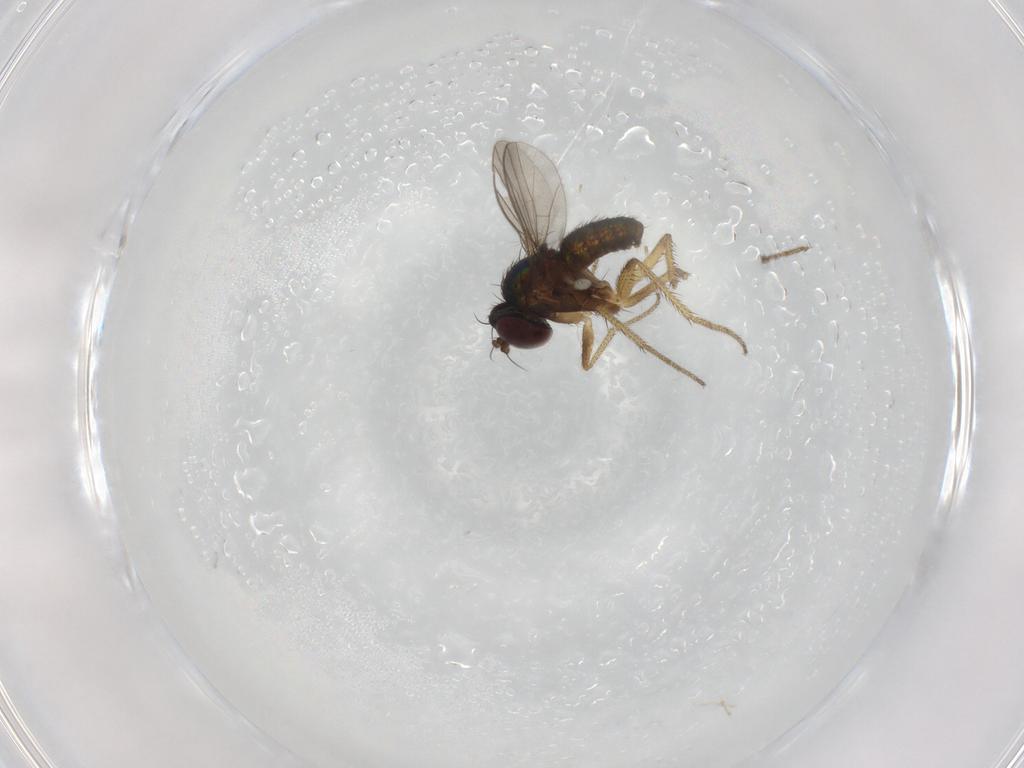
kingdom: Animalia
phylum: Arthropoda
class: Insecta
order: Diptera
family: Dolichopodidae
